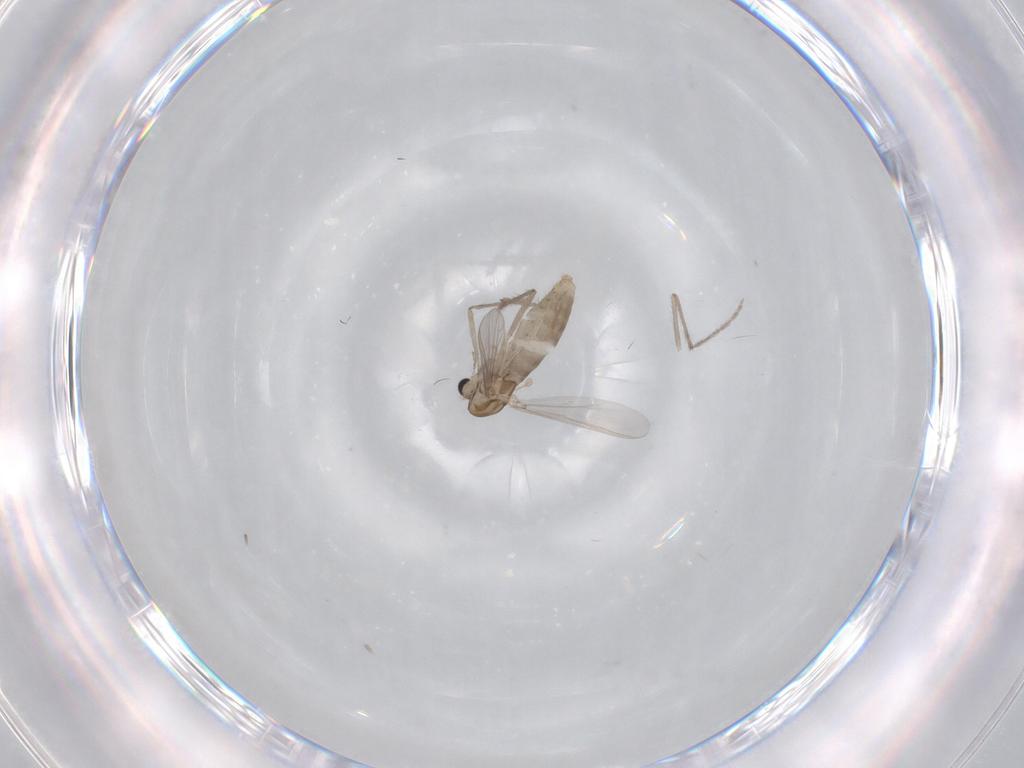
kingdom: Animalia
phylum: Arthropoda
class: Insecta
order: Diptera
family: Chironomidae
